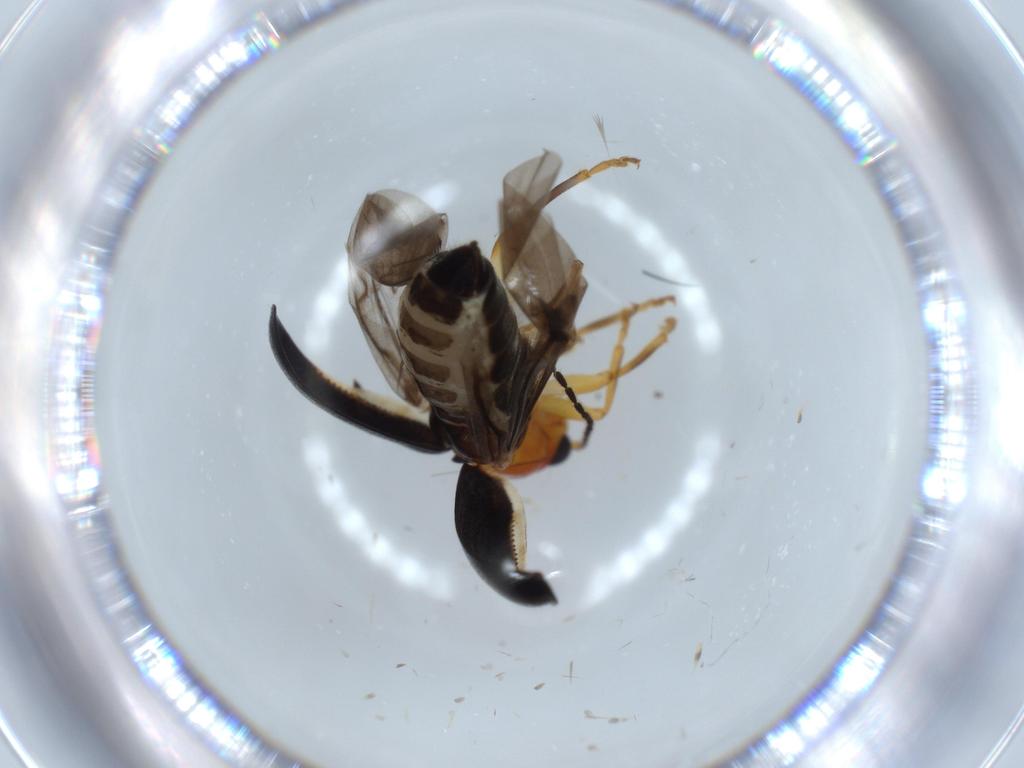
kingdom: Animalia
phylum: Arthropoda
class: Insecta
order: Coleoptera
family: Chrysomelidae
